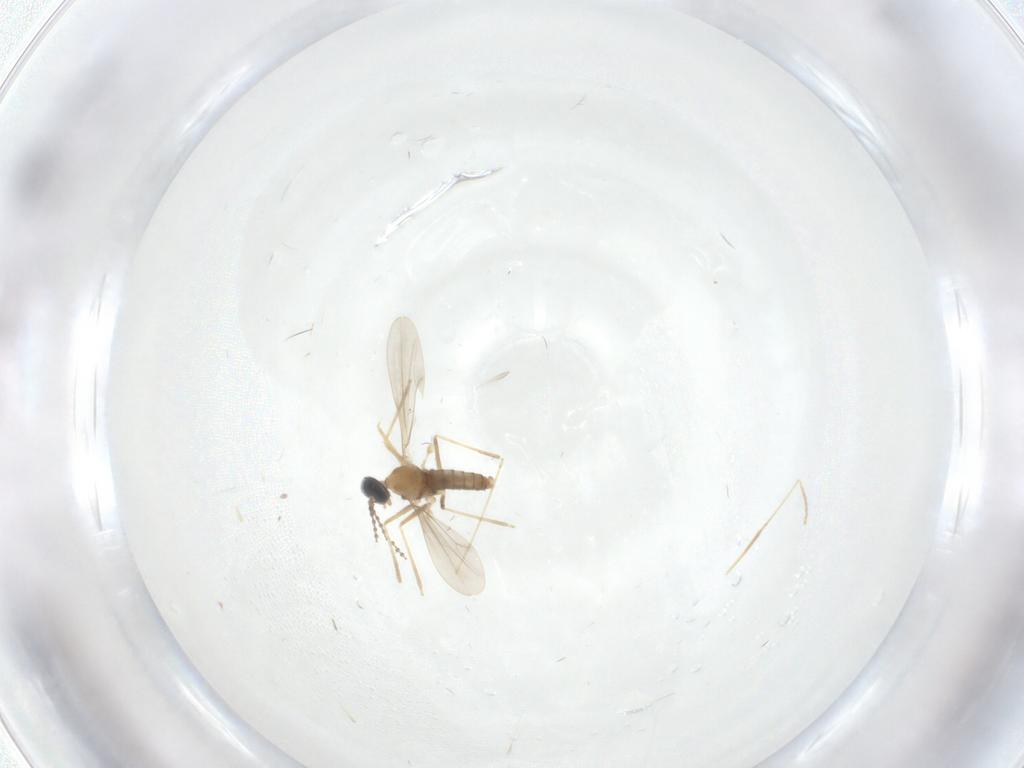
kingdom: Animalia
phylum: Arthropoda
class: Insecta
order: Diptera
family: Cecidomyiidae
